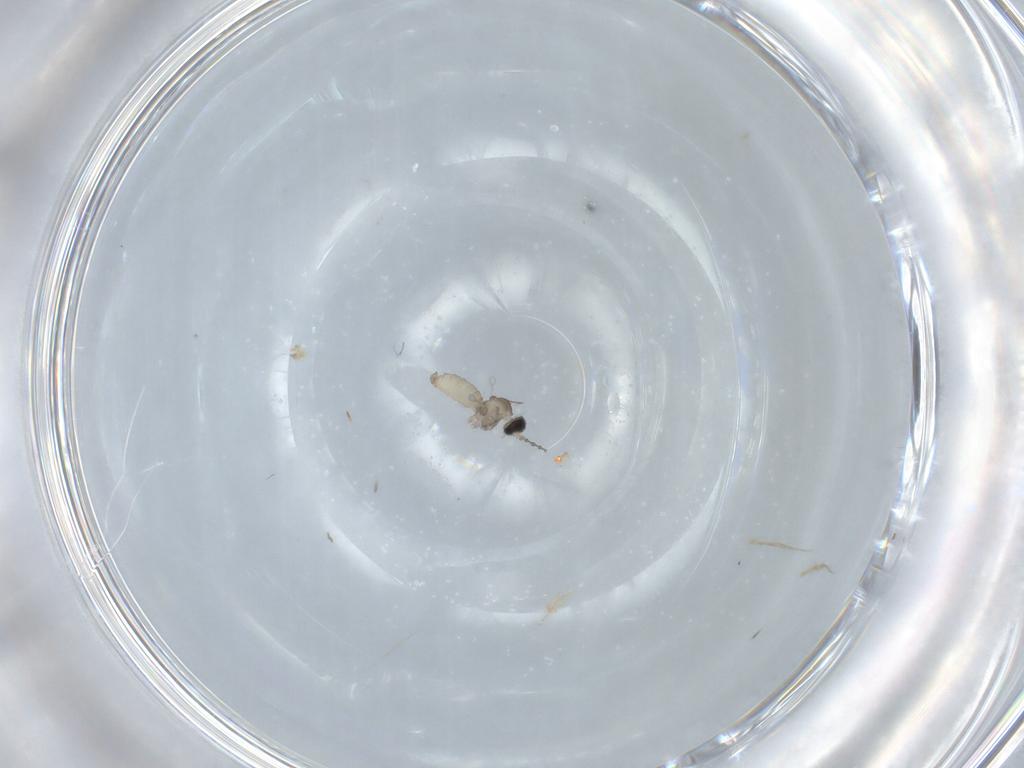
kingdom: Animalia
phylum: Arthropoda
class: Insecta
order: Diptera
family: Cecidomyiidae
